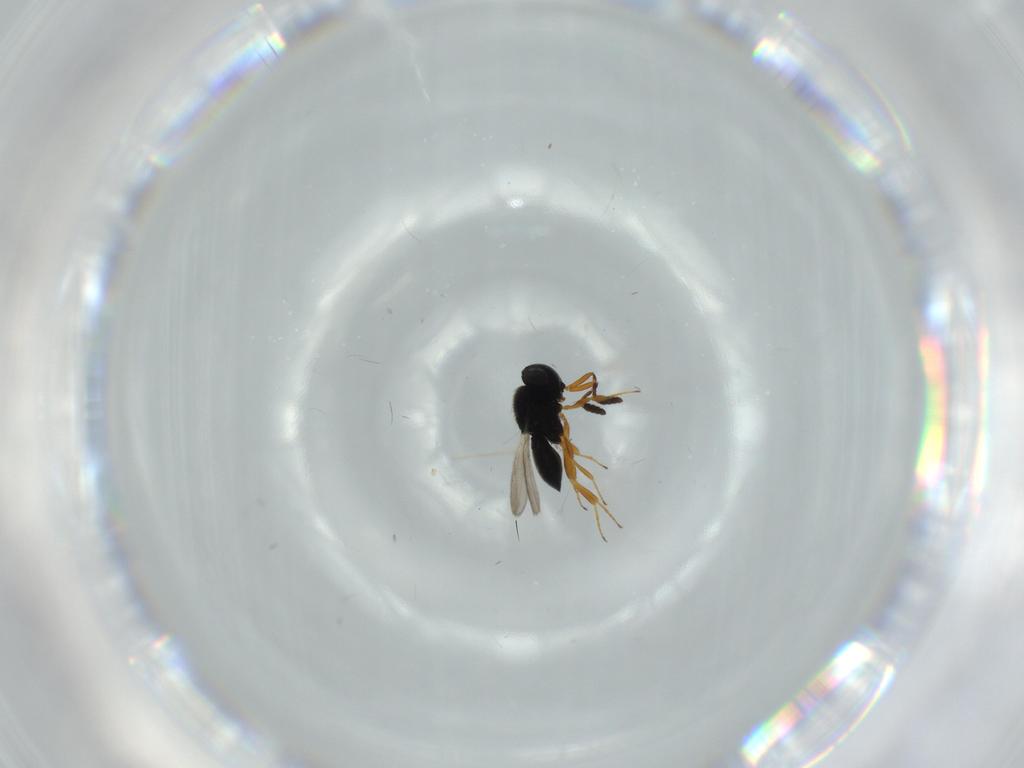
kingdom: Animalia
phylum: Arthropoda
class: Insecta
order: Hymenoptera
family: Scelionidae
